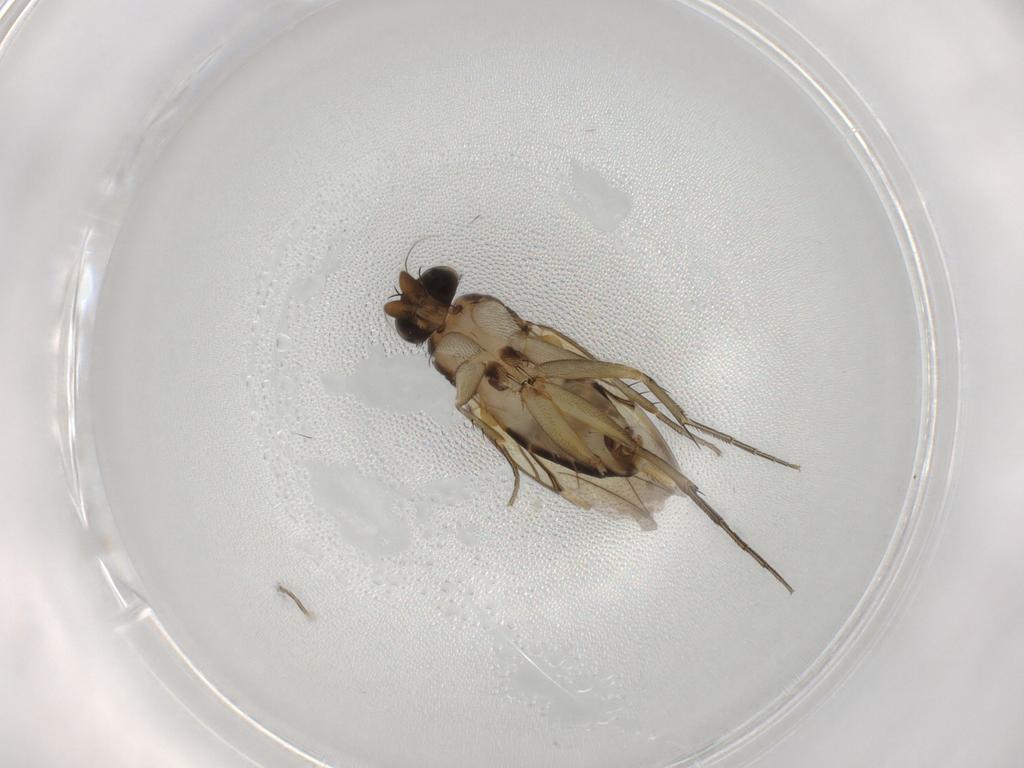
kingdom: Animalia
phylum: Arthropoda
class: Insecta
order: Diptera
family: Phoridae
